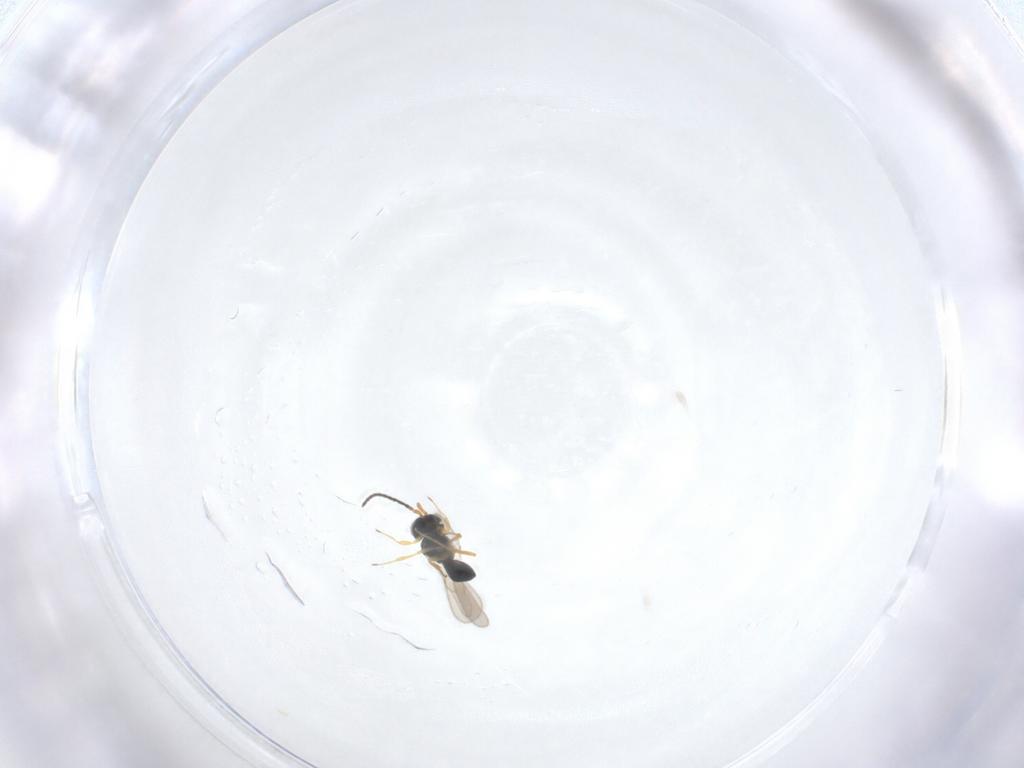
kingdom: Animalia
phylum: Arthropoda
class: Insecta
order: Hymenoptera
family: Scelionidae
